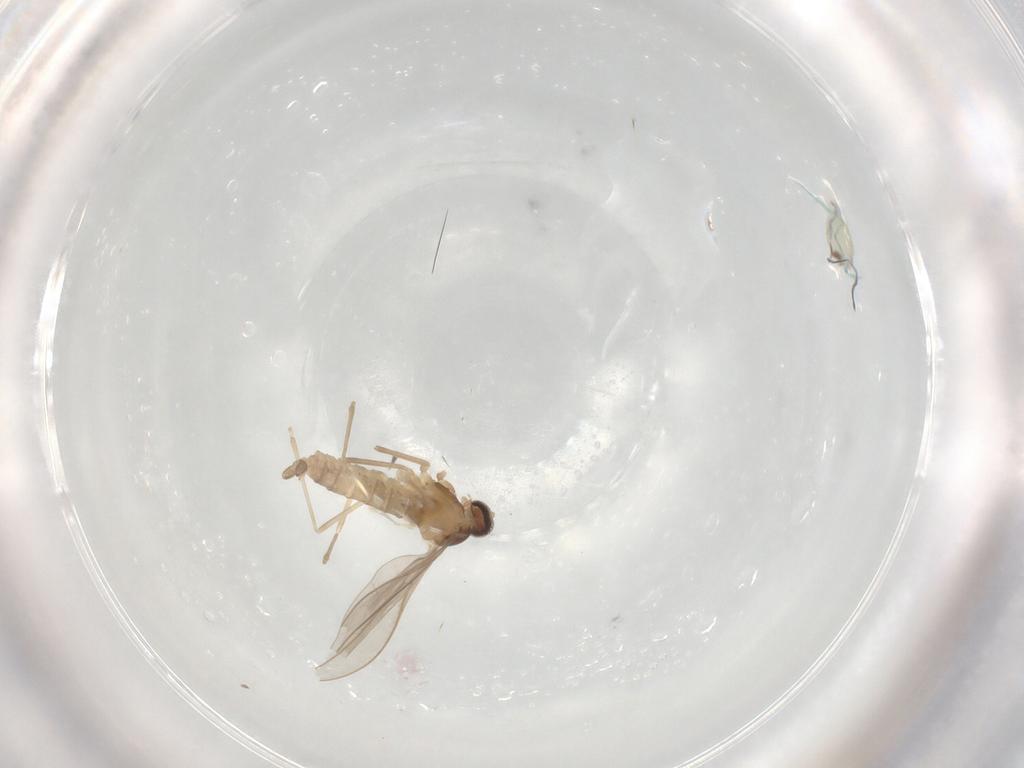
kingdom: Animalia
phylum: Arthropoda
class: Insecta
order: Diptera
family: Cecidomyiidae
